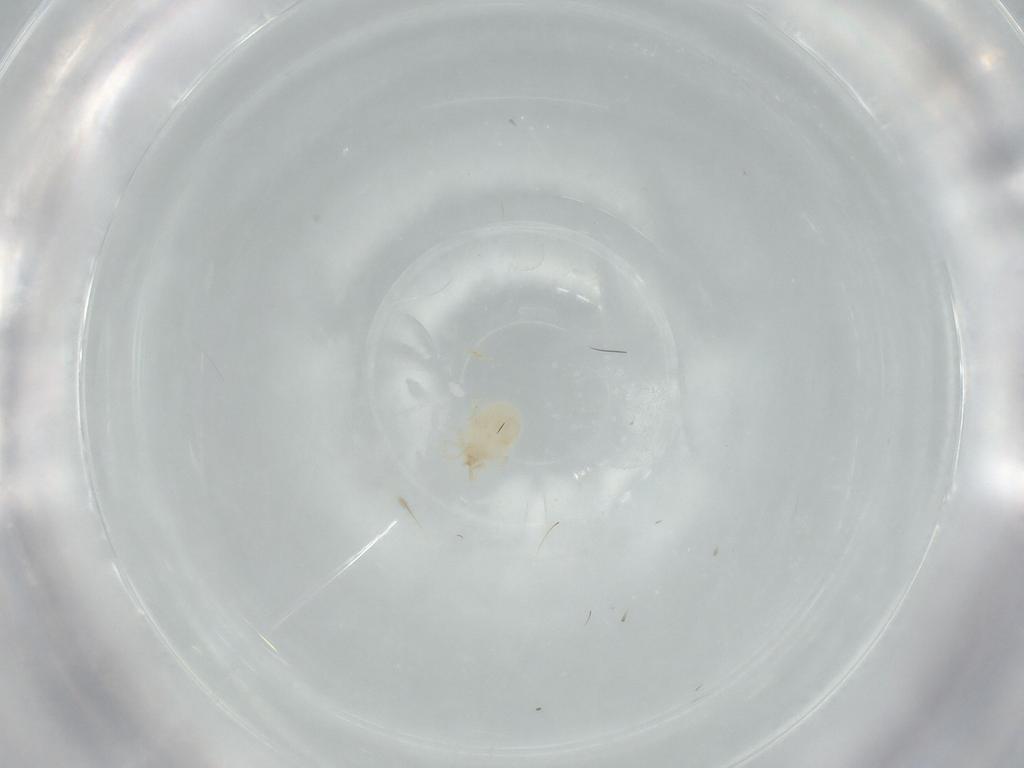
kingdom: Animalia
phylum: Arthropoda
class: Arachnida
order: Trombidiformes
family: Erythraeidae
